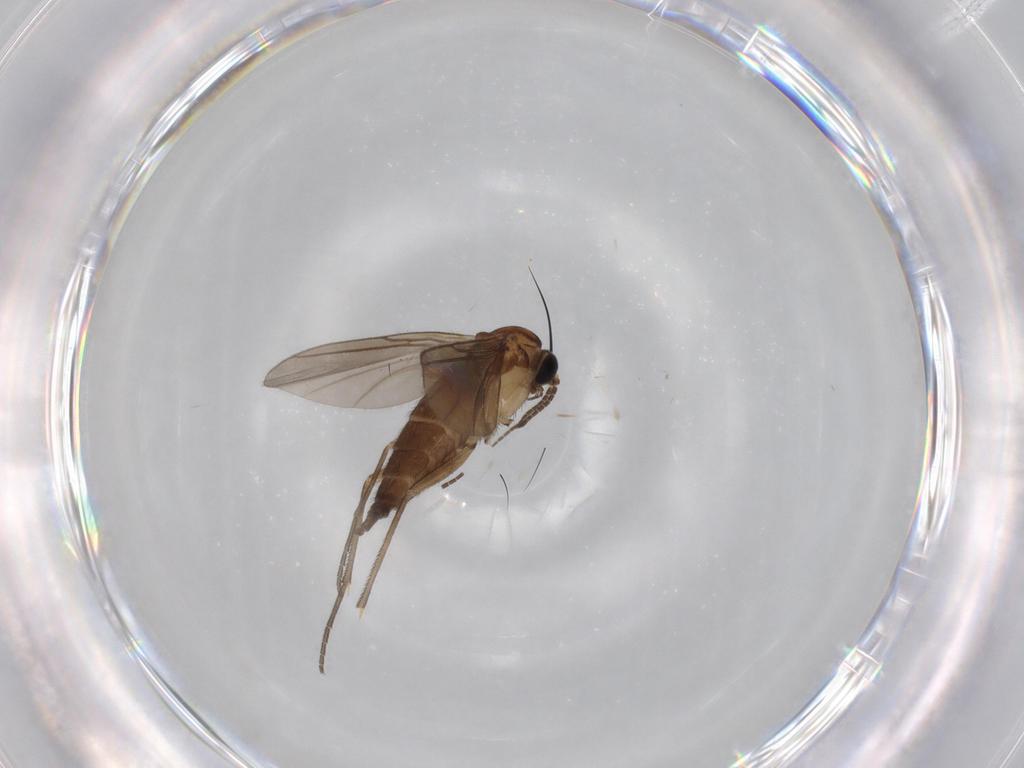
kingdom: Animalia
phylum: Arthropoda
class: Insecta
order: Diptera
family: Sciaridae
